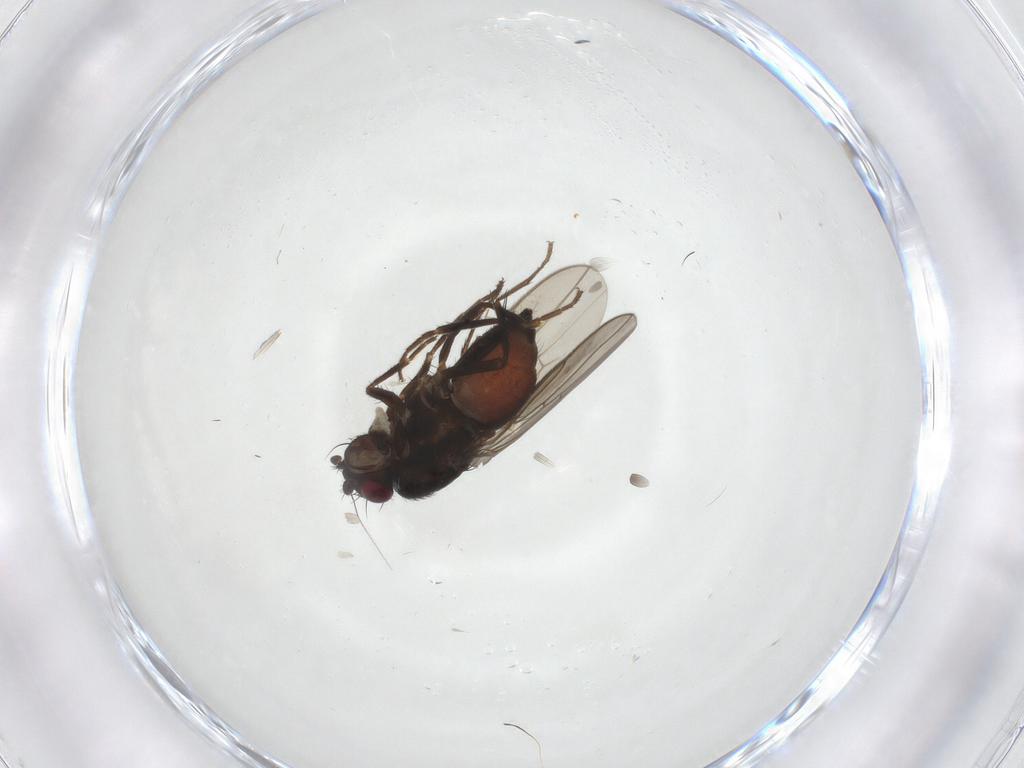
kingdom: Animalia
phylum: Arthropoda
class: Insecta
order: Diptera
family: Sphaeroceridae
